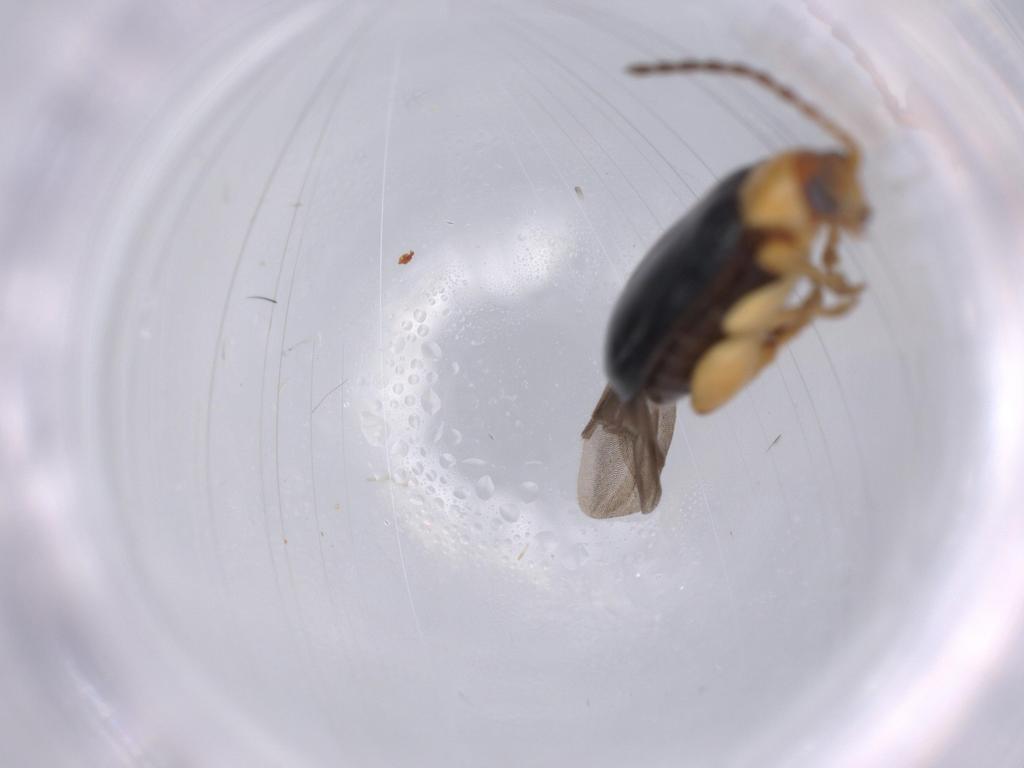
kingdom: Animalia
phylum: Arthropoda
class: Insecta
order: Coleoptera
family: Chrysomelidae
